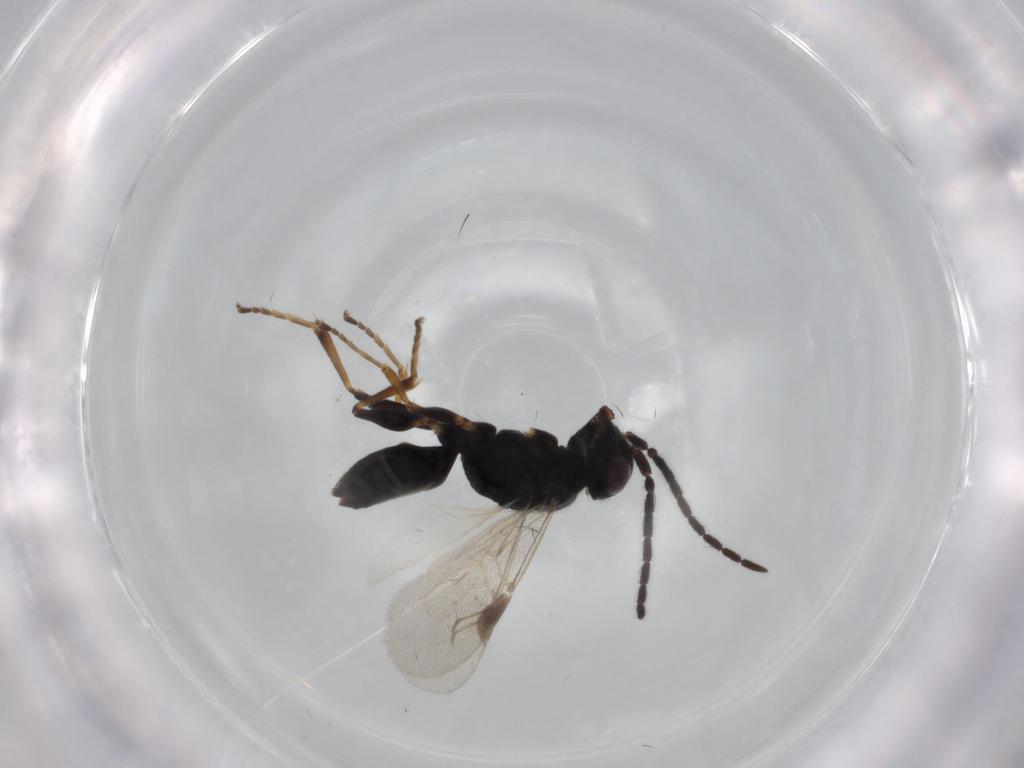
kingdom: Animalia
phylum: Arthropoda
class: Insecta
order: Hymenoptera
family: Dryinidae
